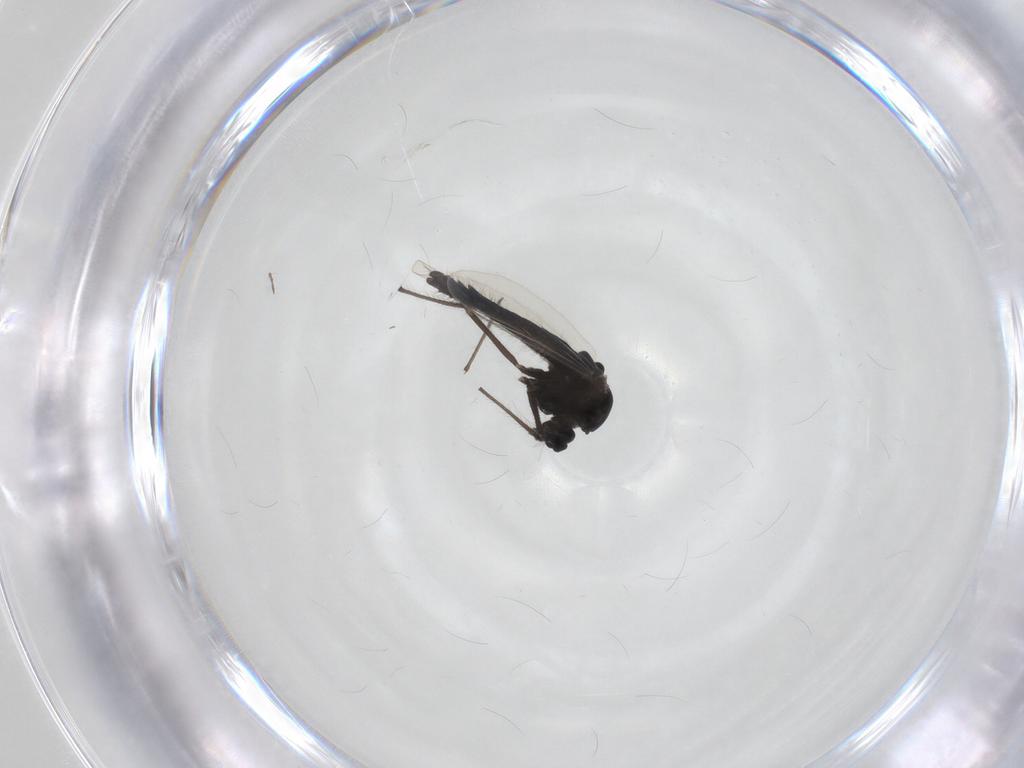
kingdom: Animalia
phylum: Arthropoda
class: Insecta
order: Diptera
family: Chironomidae
